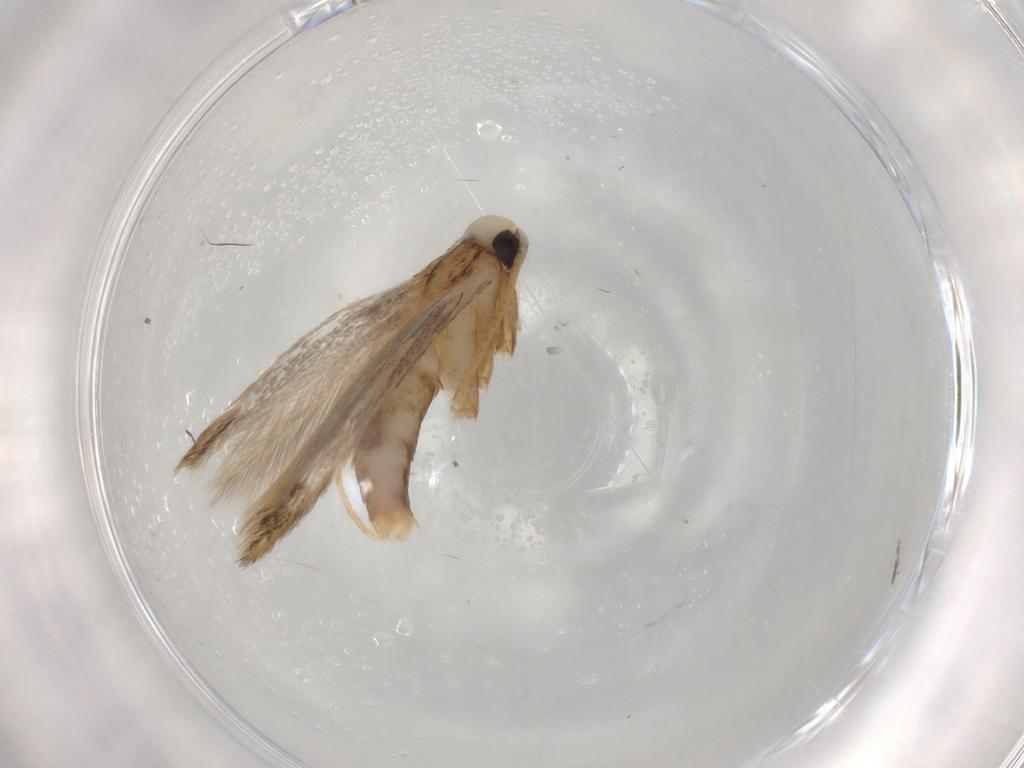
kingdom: Animalia
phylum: Arthropoda
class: Insecta
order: Lepidoptera
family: Coleophoridae
